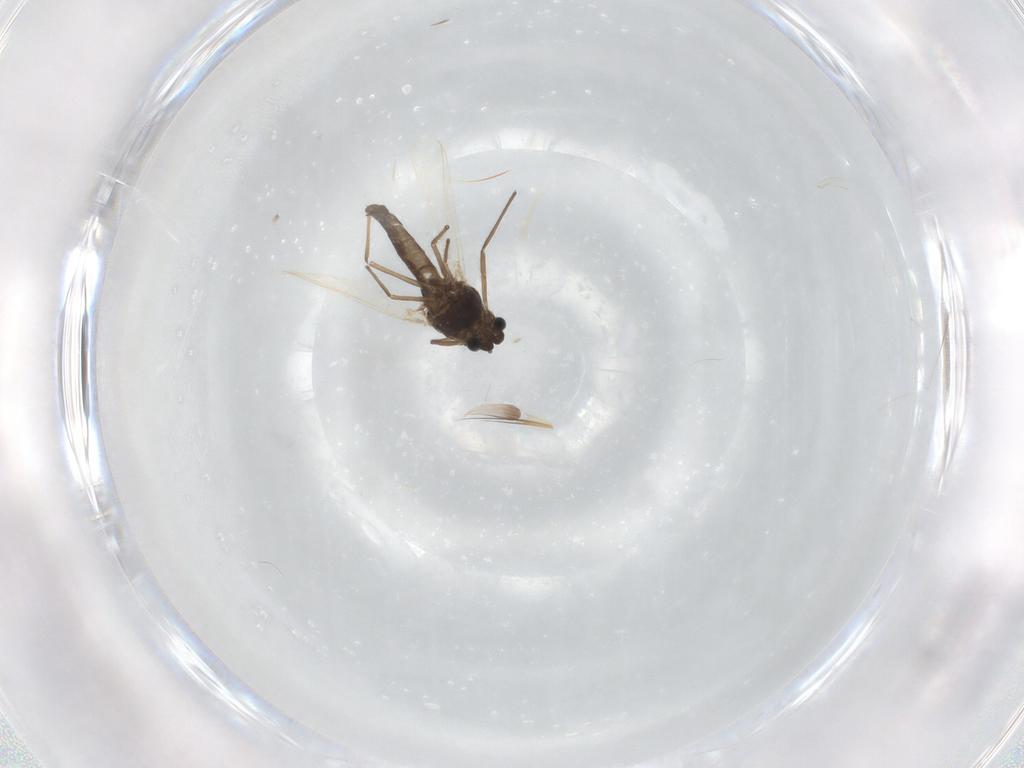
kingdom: Animalia
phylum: Arthropoda
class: Insecta
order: Diptera
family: Chironomidae
